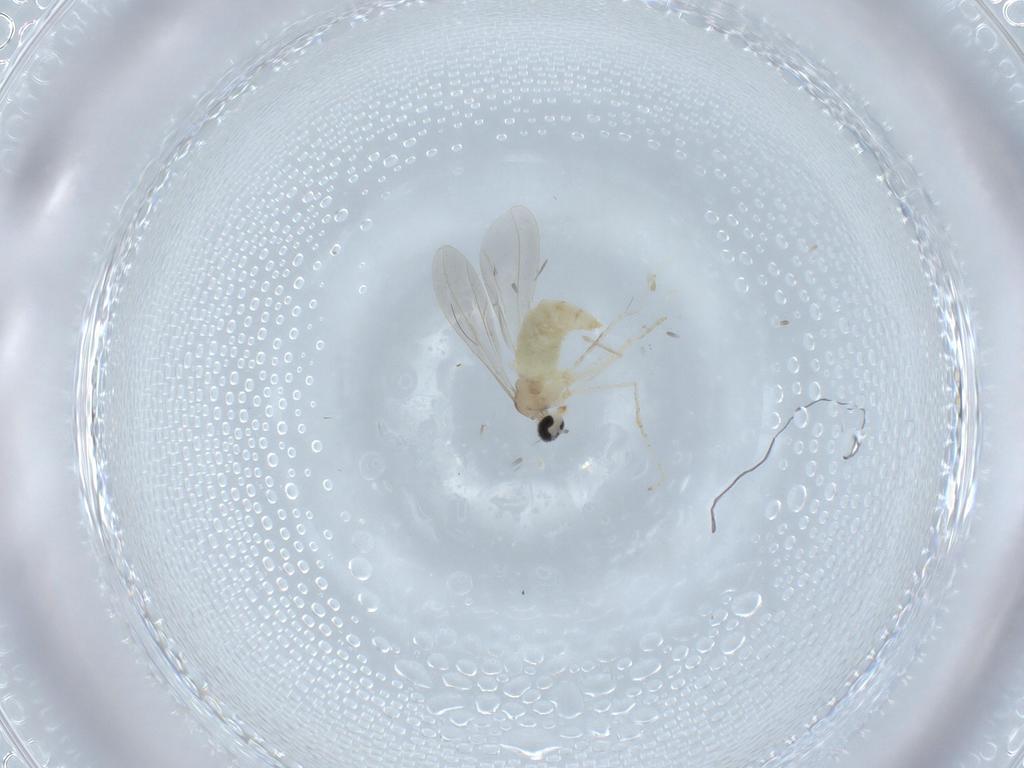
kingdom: Animalia
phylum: Arthropoda
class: Insecta
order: Diptera
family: Cecidomyiidae
